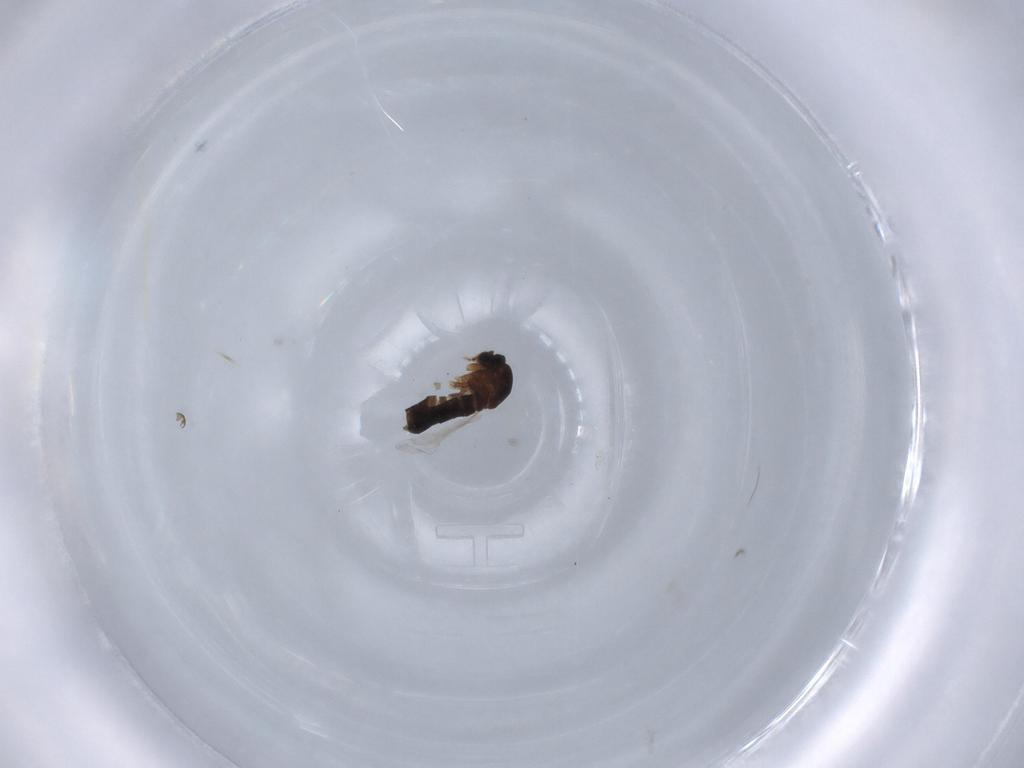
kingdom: Animalia
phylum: Arthropoda
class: Insecta
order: Diptera
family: Scatopsidae
